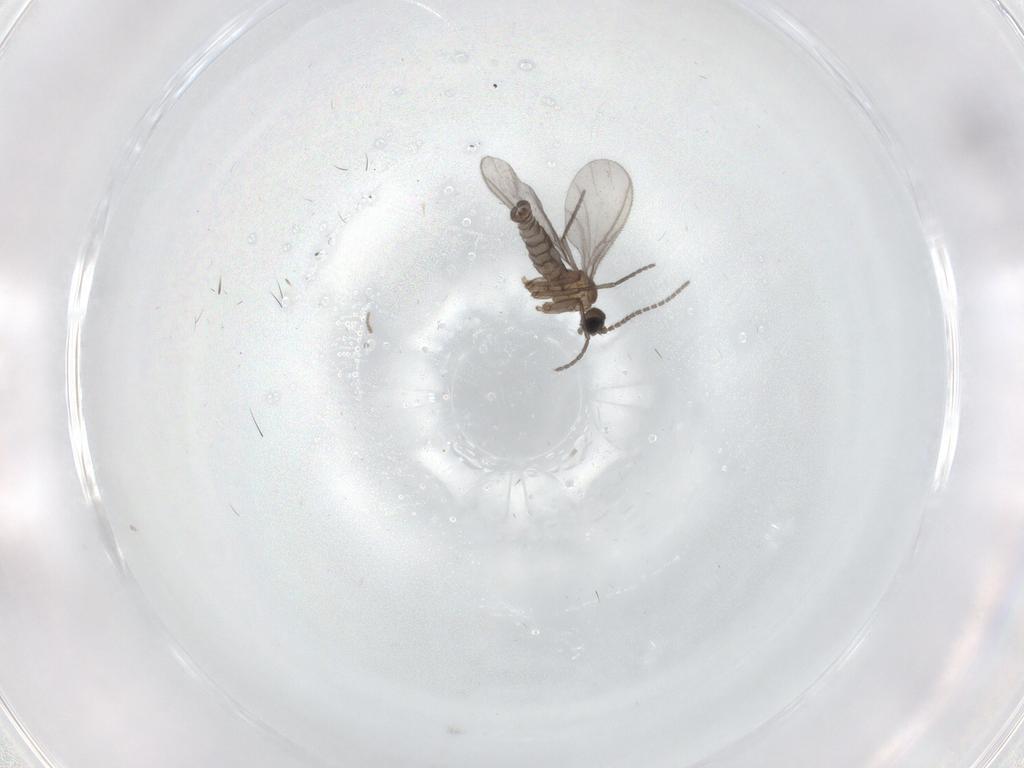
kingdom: Animalia
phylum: Arthropoda
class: Insecta
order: Diptera
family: Sciaridae
